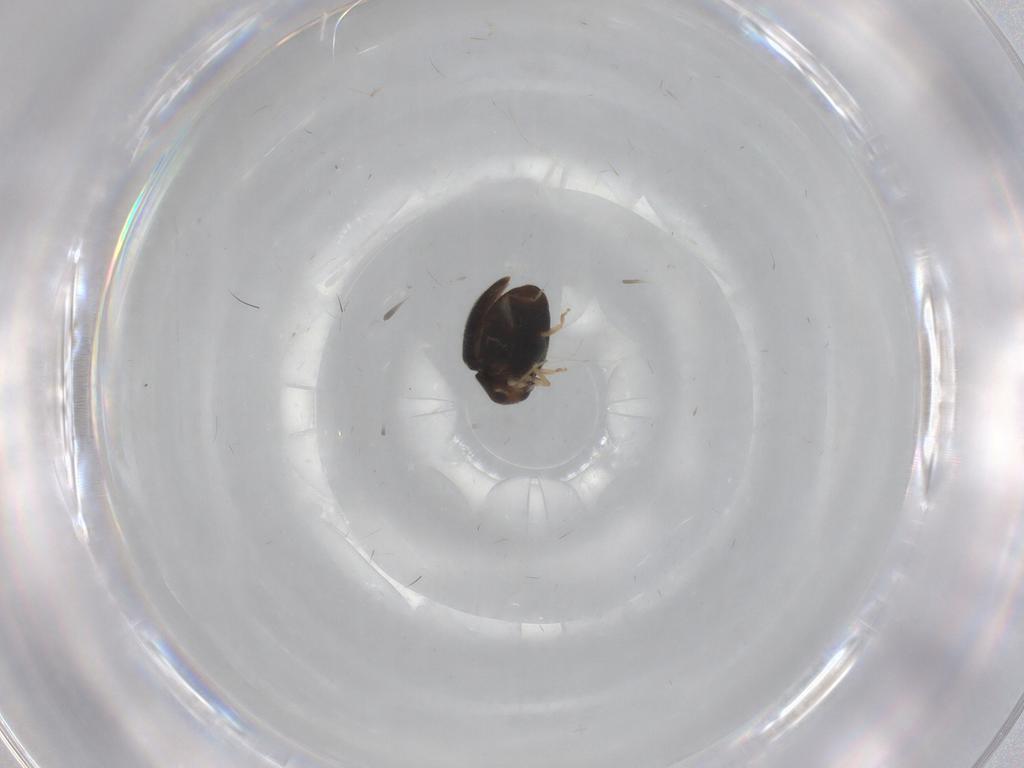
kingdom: Animalia
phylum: Arthropoda
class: Insecta
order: Coleoptera
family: Coccinellidae
